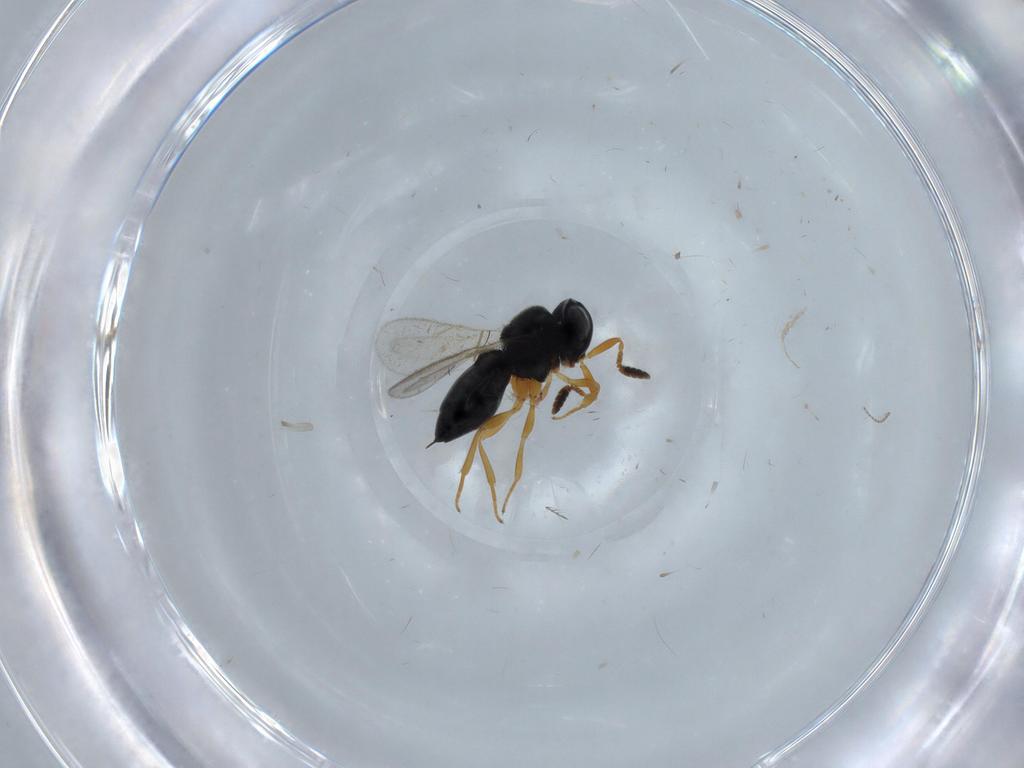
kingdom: Animalia
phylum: Arthropoda
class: Insecta
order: Hymenoptera
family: Scelionidae
